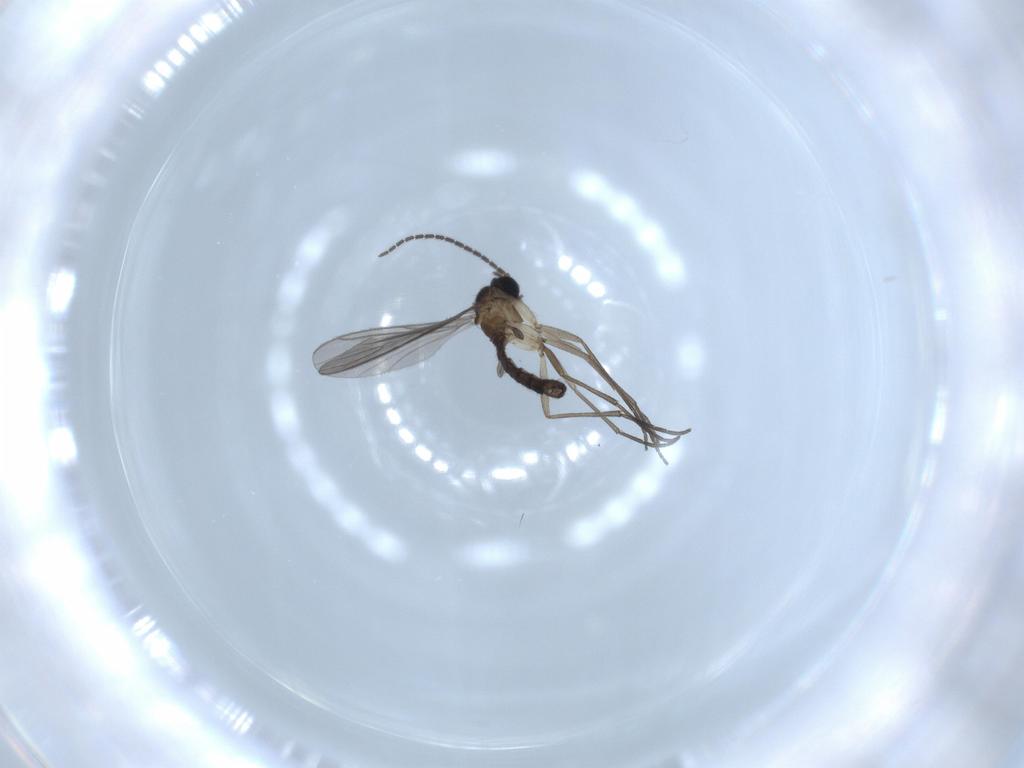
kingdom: Animalia
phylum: Arthropoda
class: Insecta
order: Diptera
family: Sciaridae
